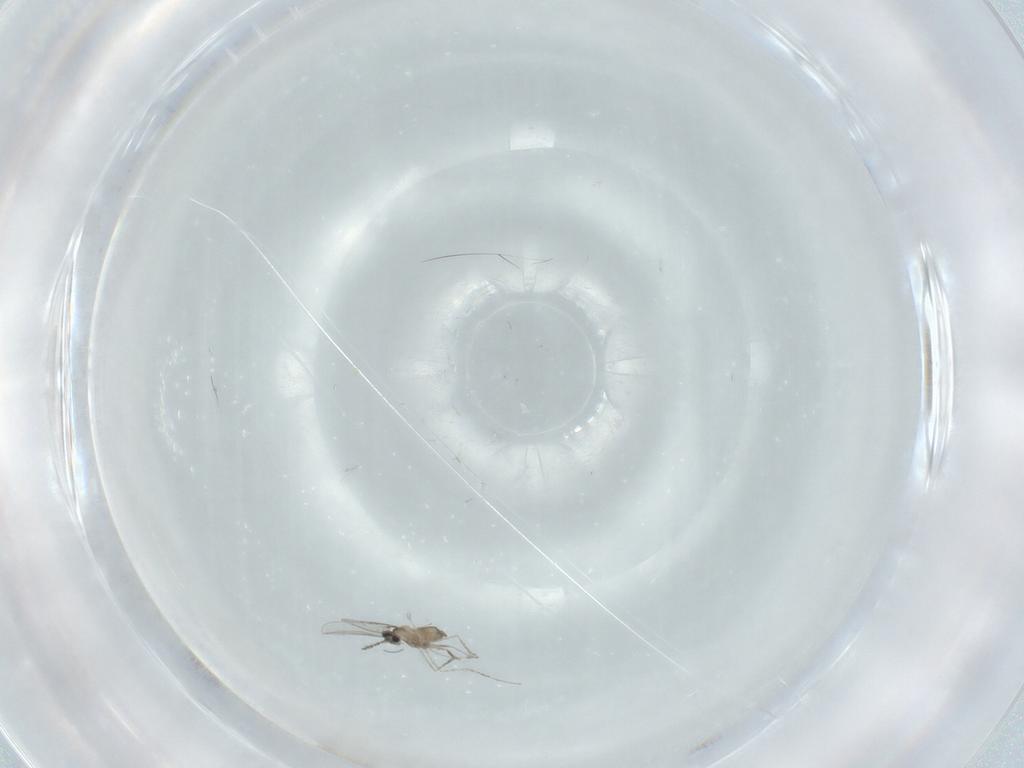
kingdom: Animalia
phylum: Arthropoda
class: Insecta
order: Diptera
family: Cecidomyiidae
